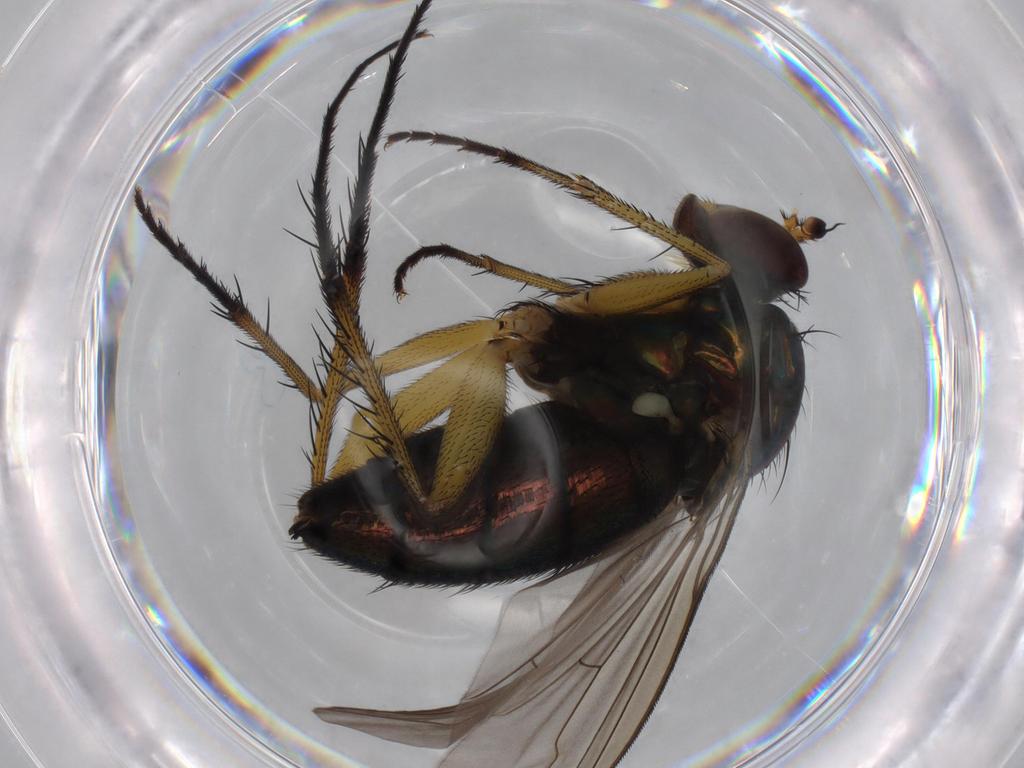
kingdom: Animalia
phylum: Arthropoda
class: Insecta
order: Diptera
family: Dolichopodidae
